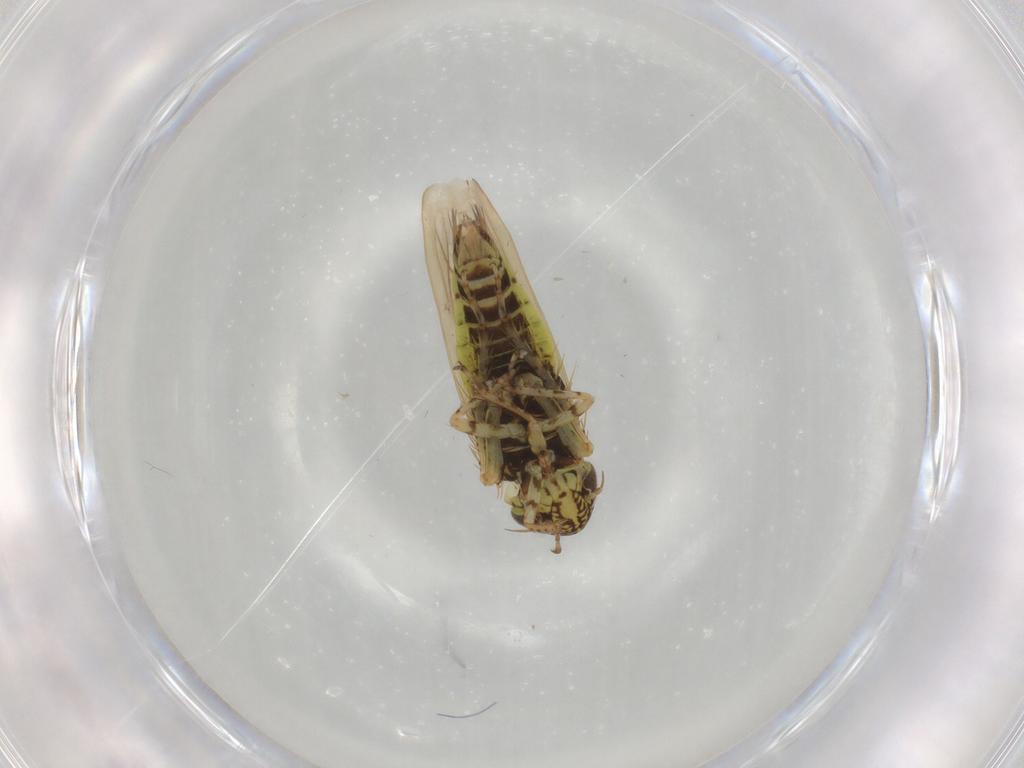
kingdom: Animalia
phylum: Arthropoda
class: Insecta
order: Hemiptera
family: Cicadellidae
